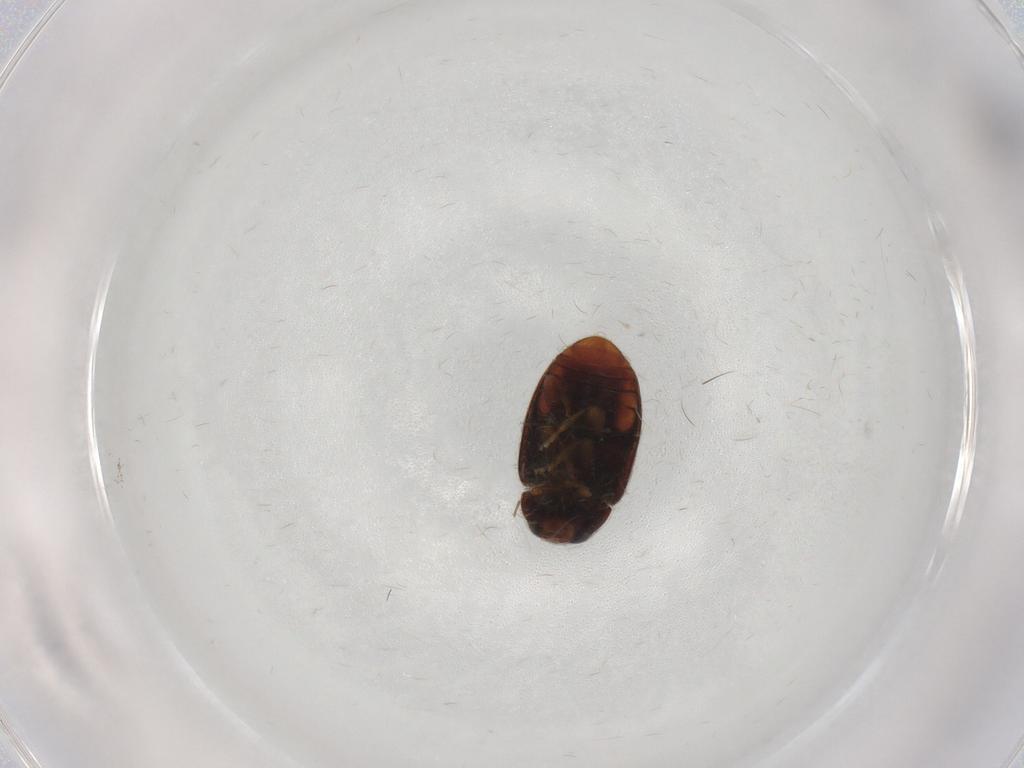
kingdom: Animalia
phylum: Arthropoda
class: Insecta
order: Coleoptera
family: Coccinellidae
